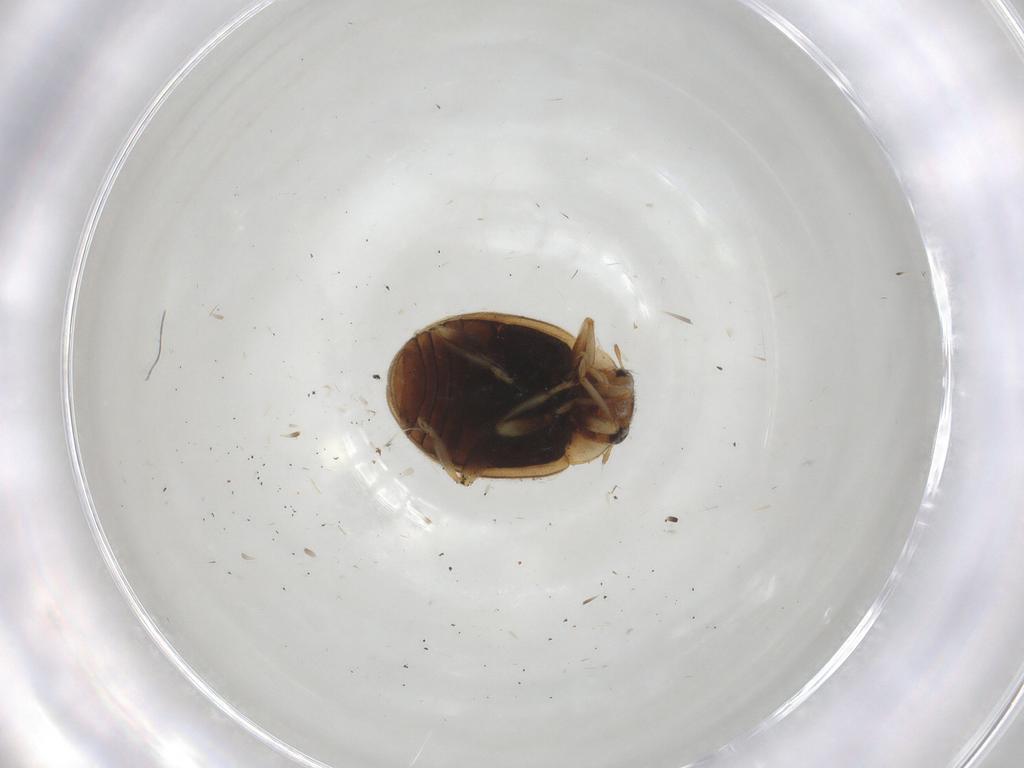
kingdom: Animalia
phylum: Arthropoda
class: Insecta
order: Coleoptera
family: Coccinellidae
